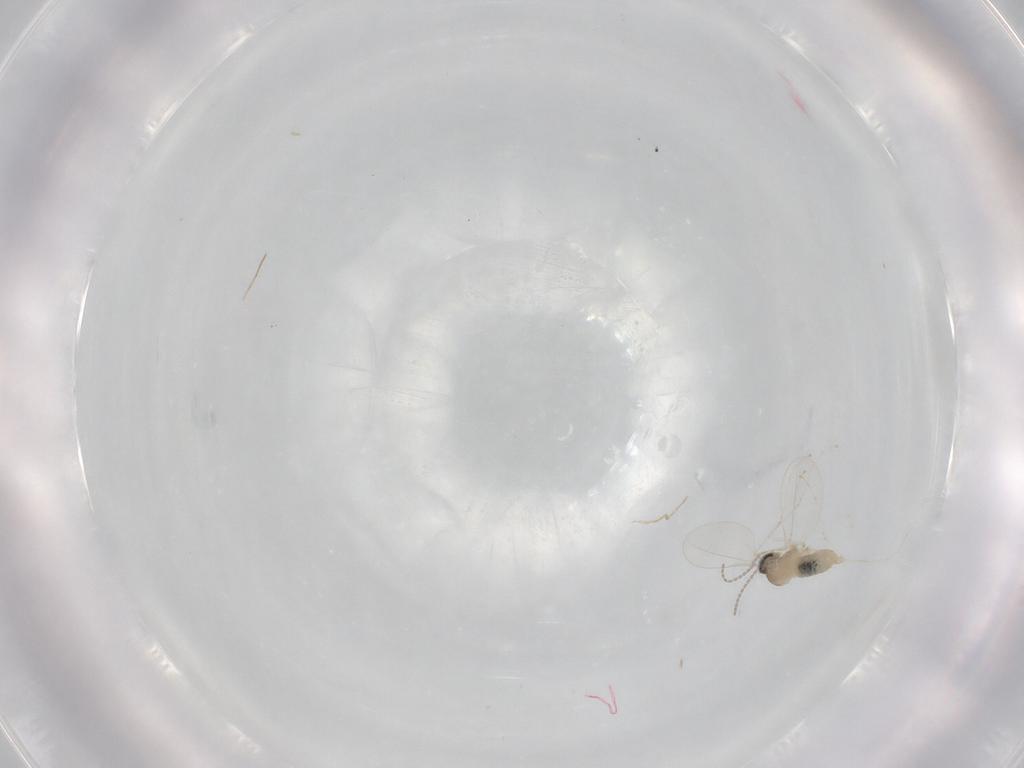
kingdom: Animalia
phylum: Arthropoda
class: Insecta
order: Diptera
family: Cecidomyiidae
